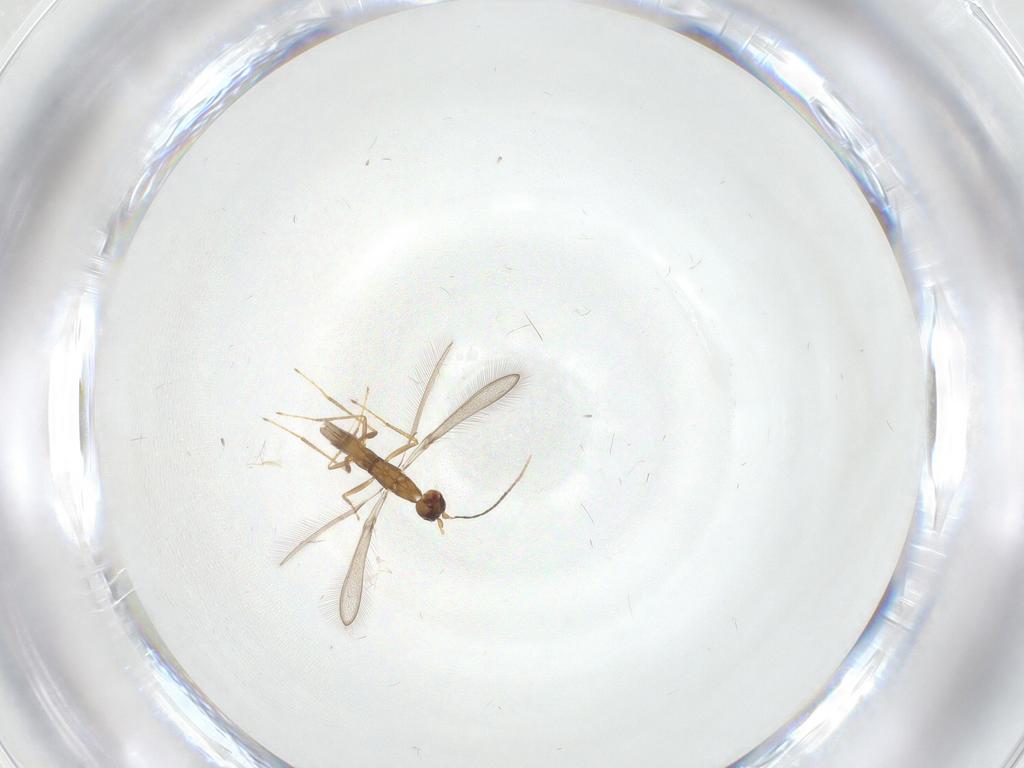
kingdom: Animalia
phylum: Arthropoda
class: Insecta
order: Hymenoptera
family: Mymaridae
